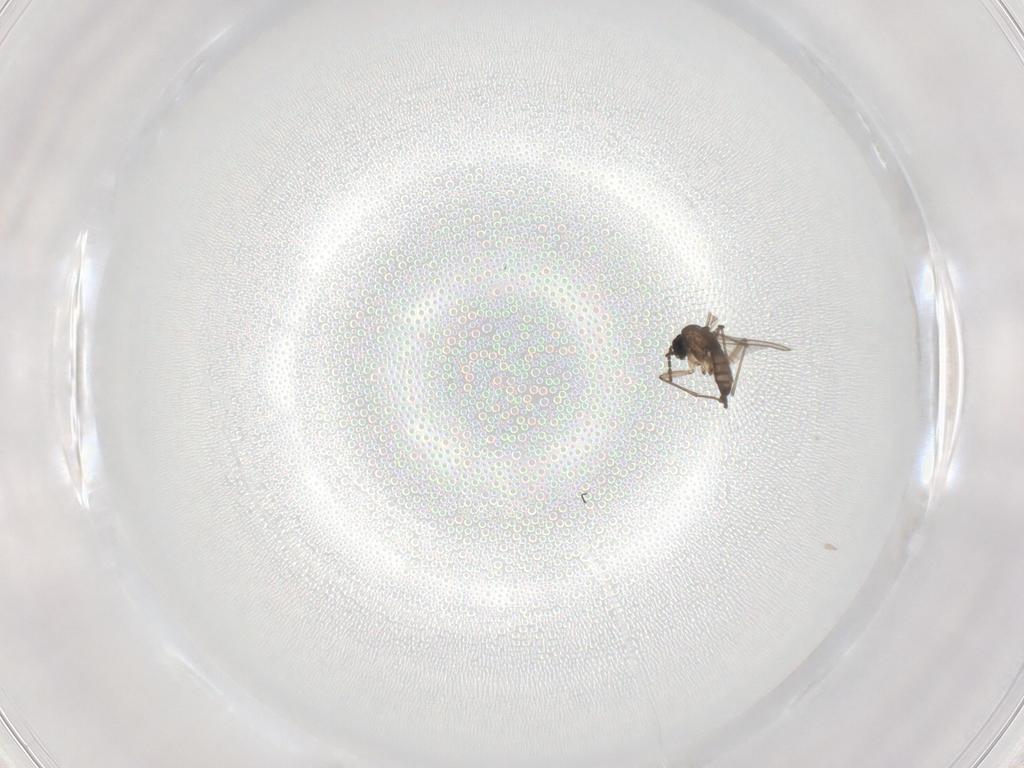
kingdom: Animalia
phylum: Arthropoda
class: Insecta
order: Diptera
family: Sciaridae
